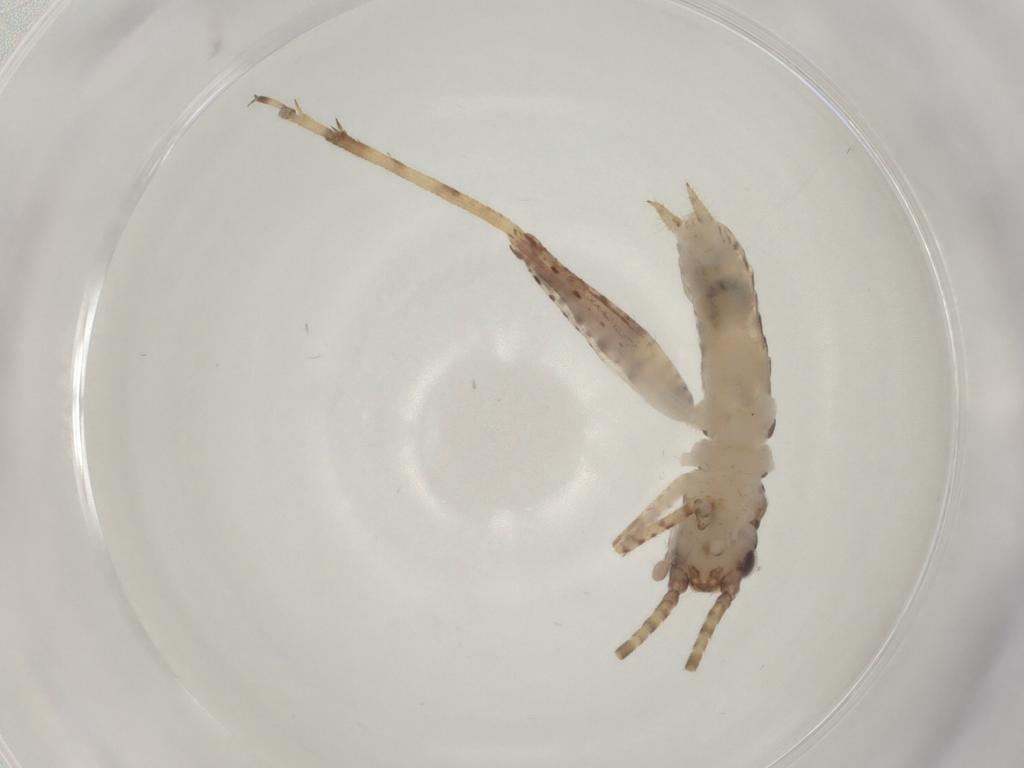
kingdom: Animalia
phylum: Arthropoda
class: Insecta
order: Orthoptera
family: Gryllidae
